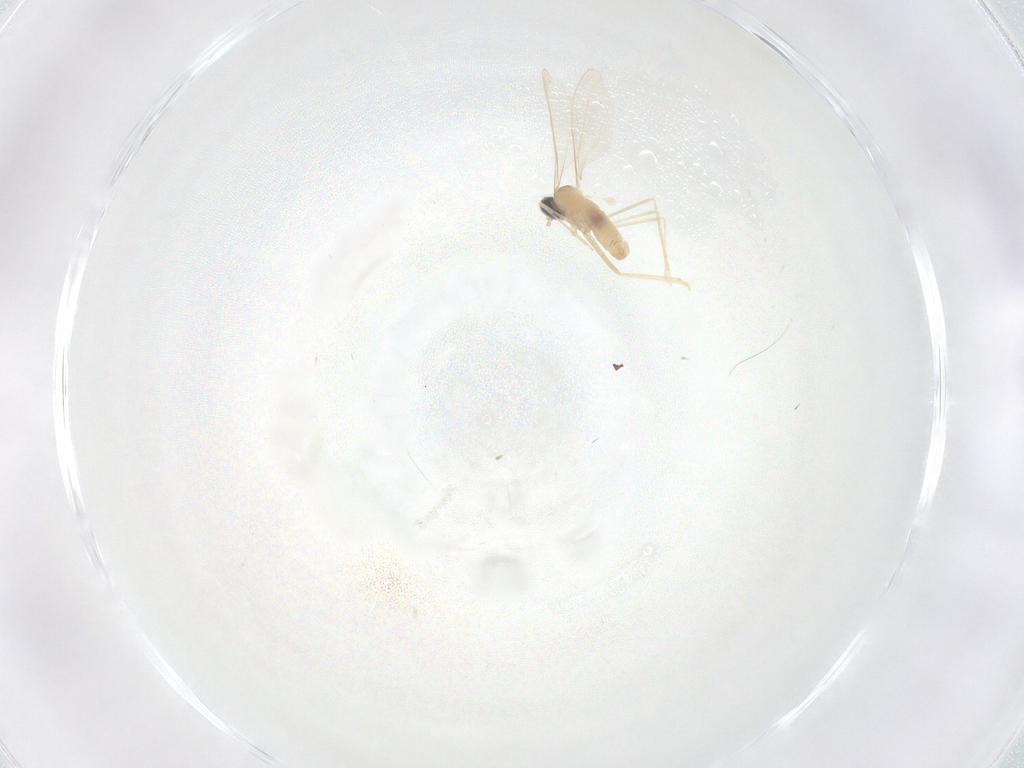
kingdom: Animalia
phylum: Arthropoda
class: Insecta
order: Diptera
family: Cecidomyiidae
